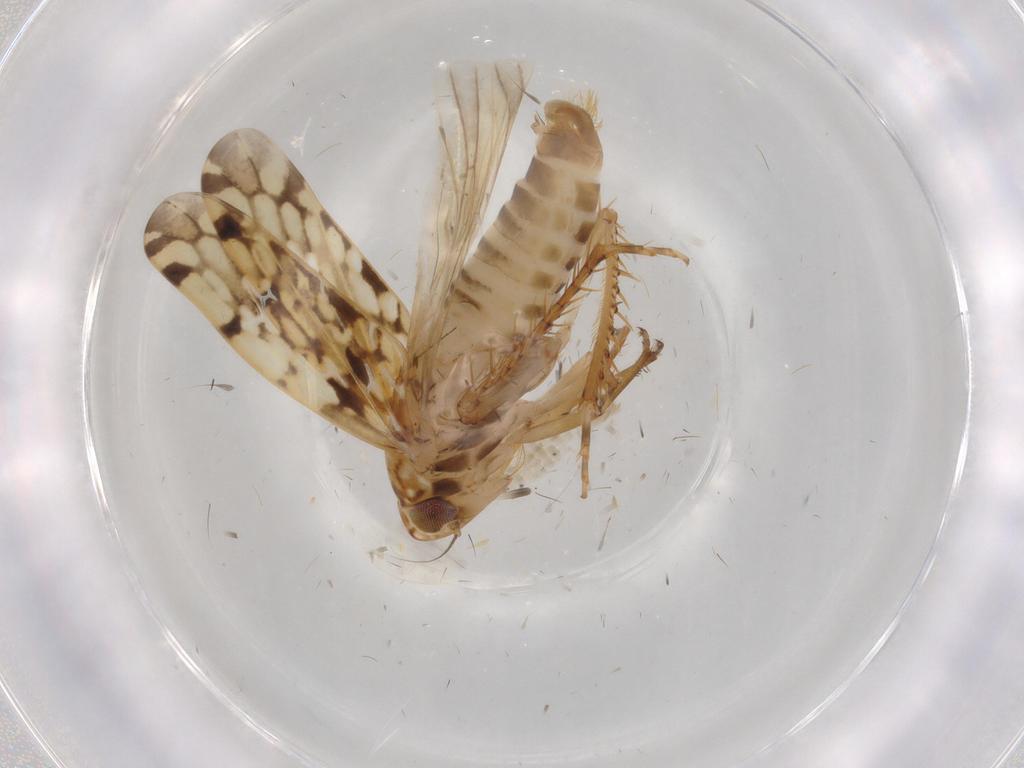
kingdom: Animalia
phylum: Arthropoda
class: Insecta
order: Hemiptera
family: Cicadellidae
